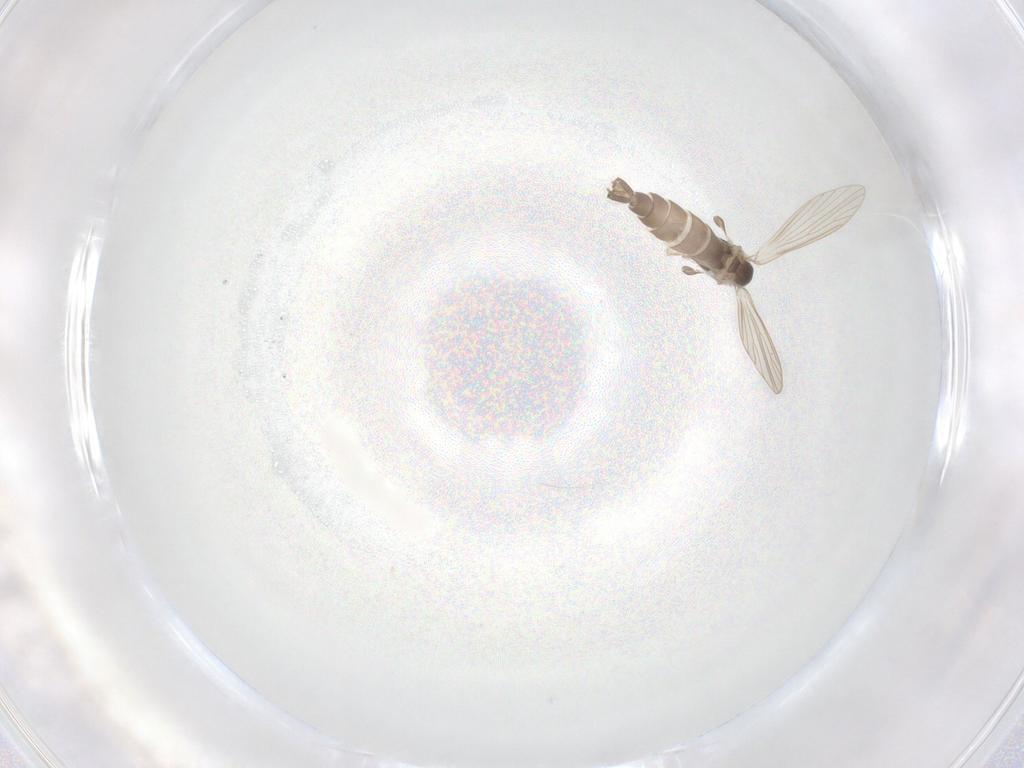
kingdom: Animalia
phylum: Arthropoda
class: Insecta
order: Diptera
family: Psychodidae
